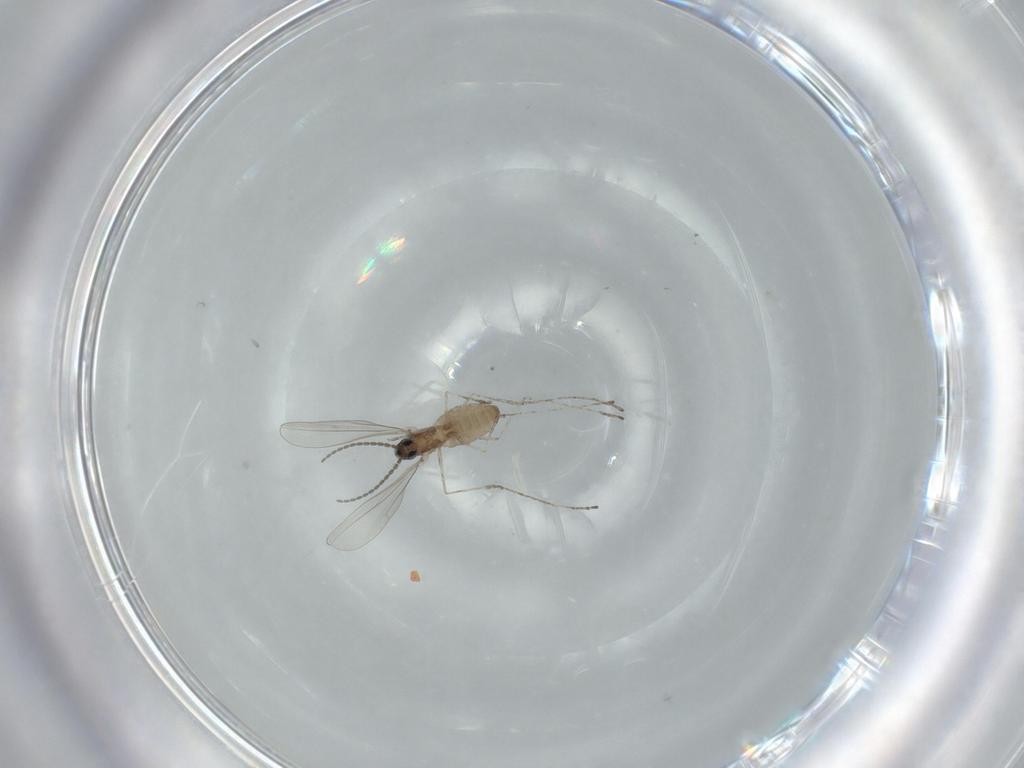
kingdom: Animalia
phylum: Arthropoda
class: Insecta
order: Diptera
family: Cecidomyiidae
